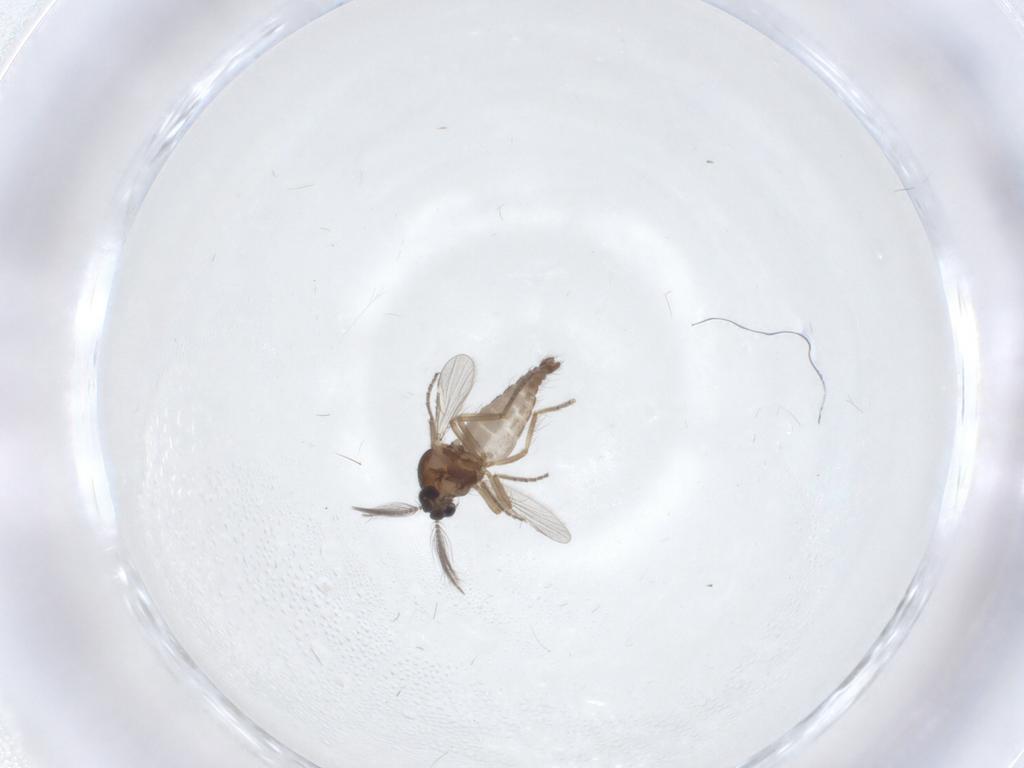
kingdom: Animalia
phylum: Arthropoda
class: Insecta
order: Diptera
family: Ceratopogonidae
